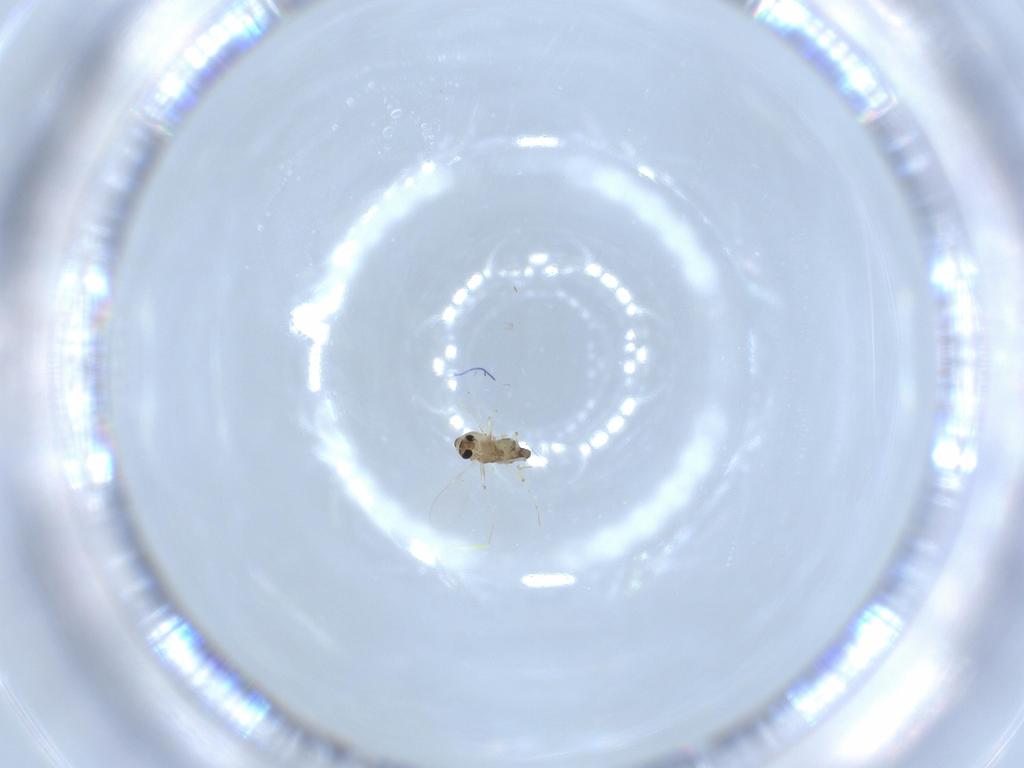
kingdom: Animalia
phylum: Arthropoda
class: Insecta
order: Diptera
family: Chironomidae
